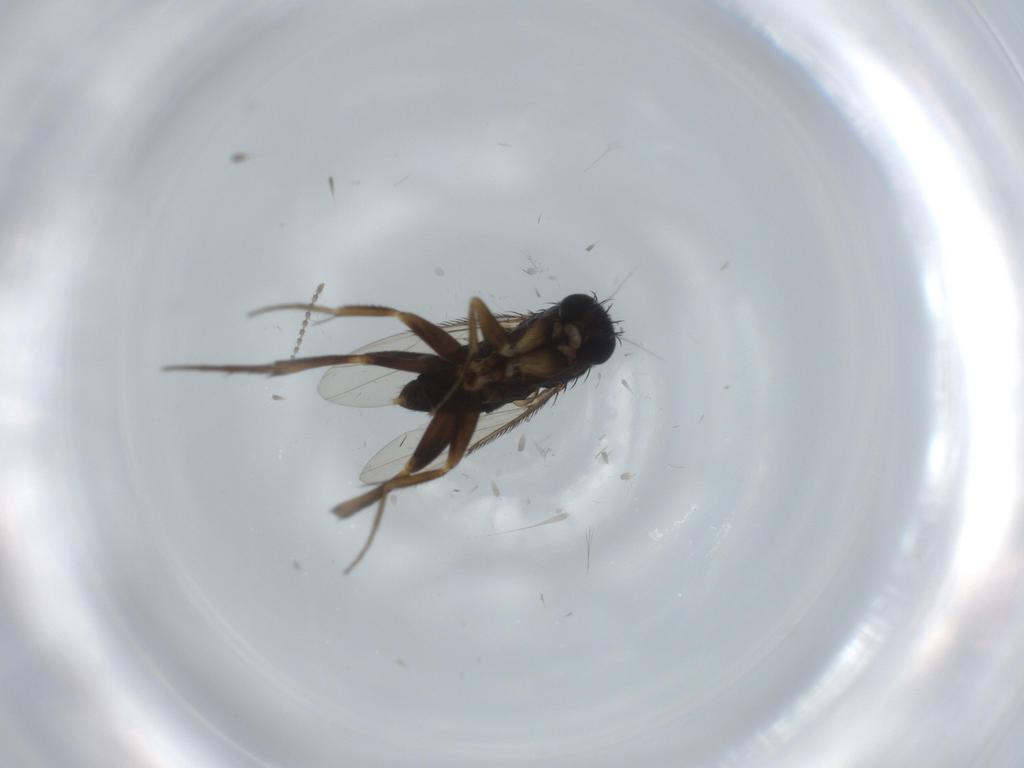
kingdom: Animalia
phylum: Arthropoda
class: Insecta
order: Diptera
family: Phoridae
